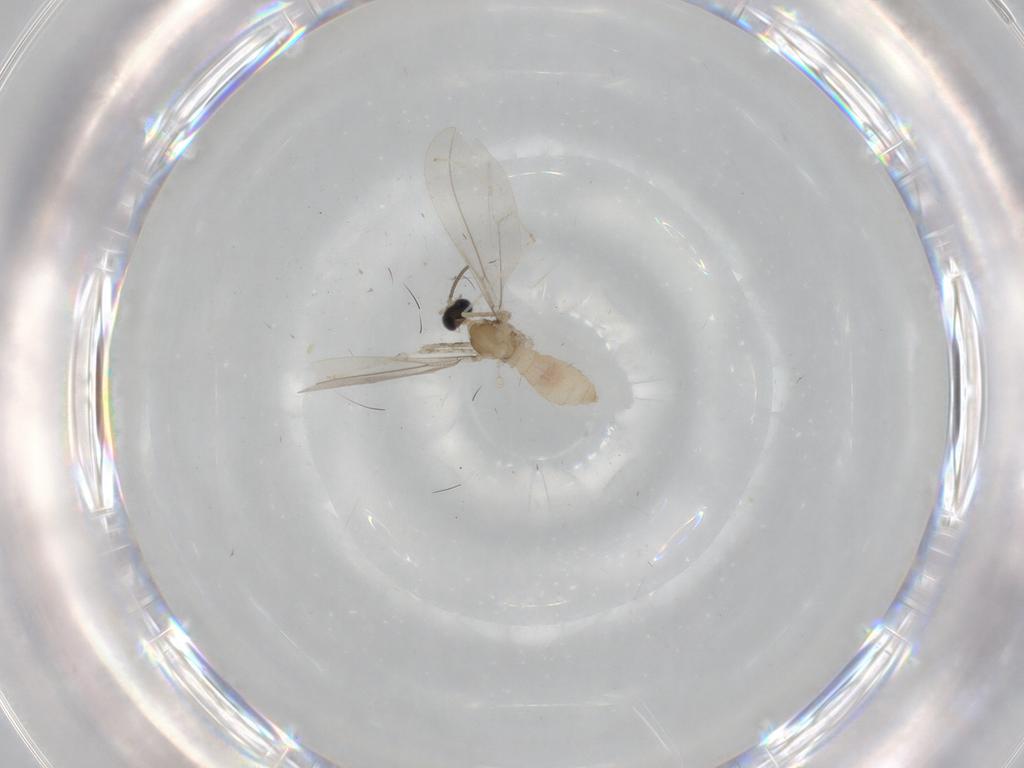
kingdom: Animalia
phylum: Arthropoda
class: Insecta
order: Diptera
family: Cecidomyiidae
